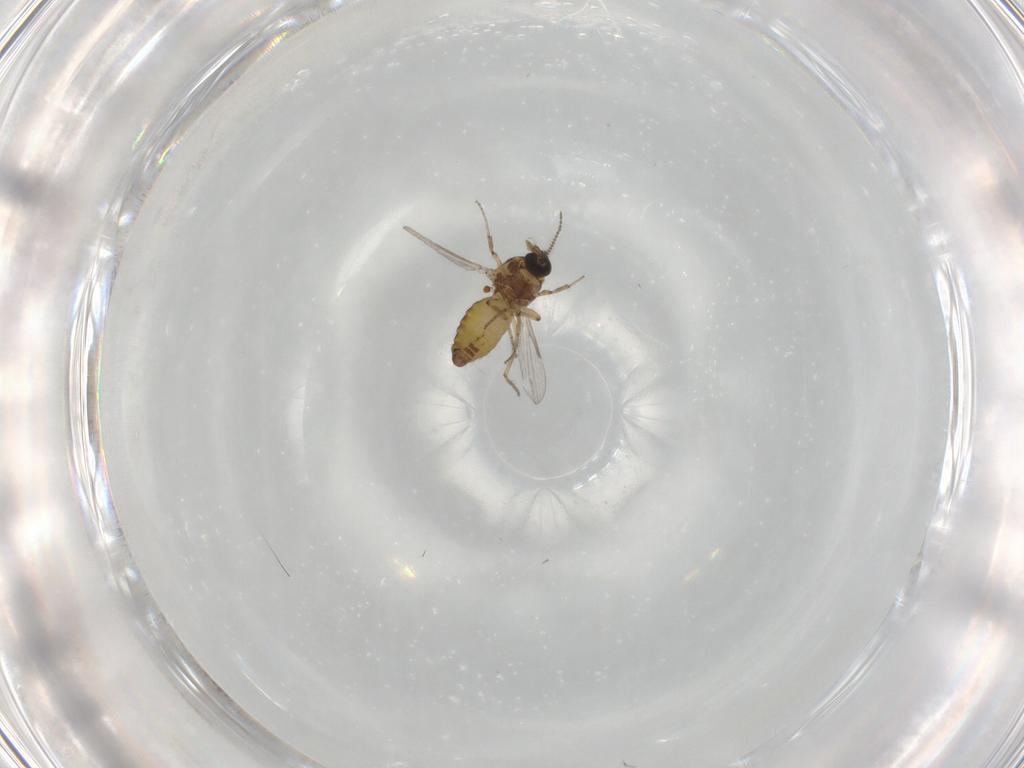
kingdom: Animalia
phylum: Arthropoda
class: Insecta
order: Diptera
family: Ceratopogonidae
